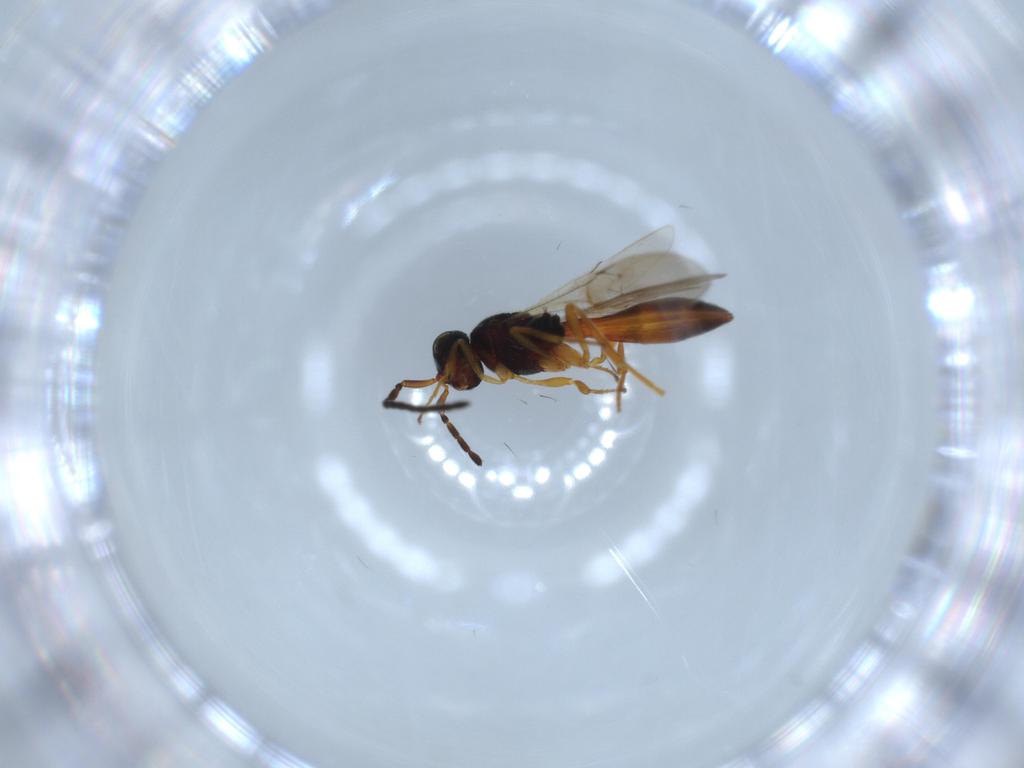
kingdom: Animalia
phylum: Arthropoda
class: Insecta
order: Hymenoptera
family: Scelionidae
